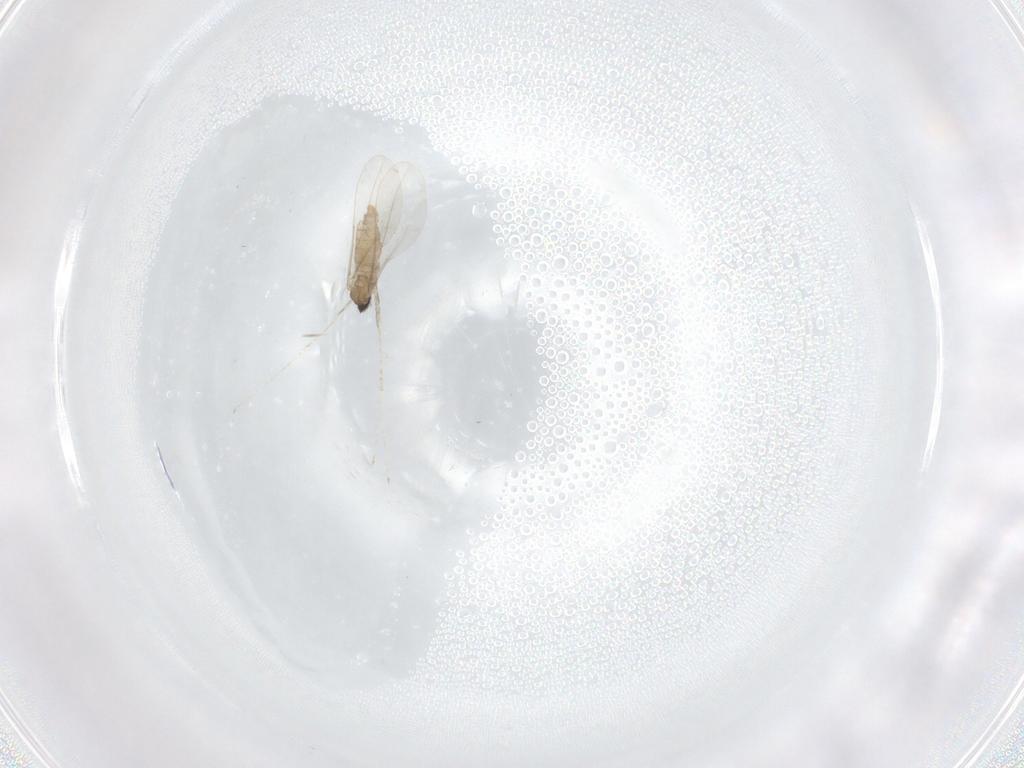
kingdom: Animalia
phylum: Arthropoda
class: Insecta
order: Diptera
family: Cecidomyiidae
